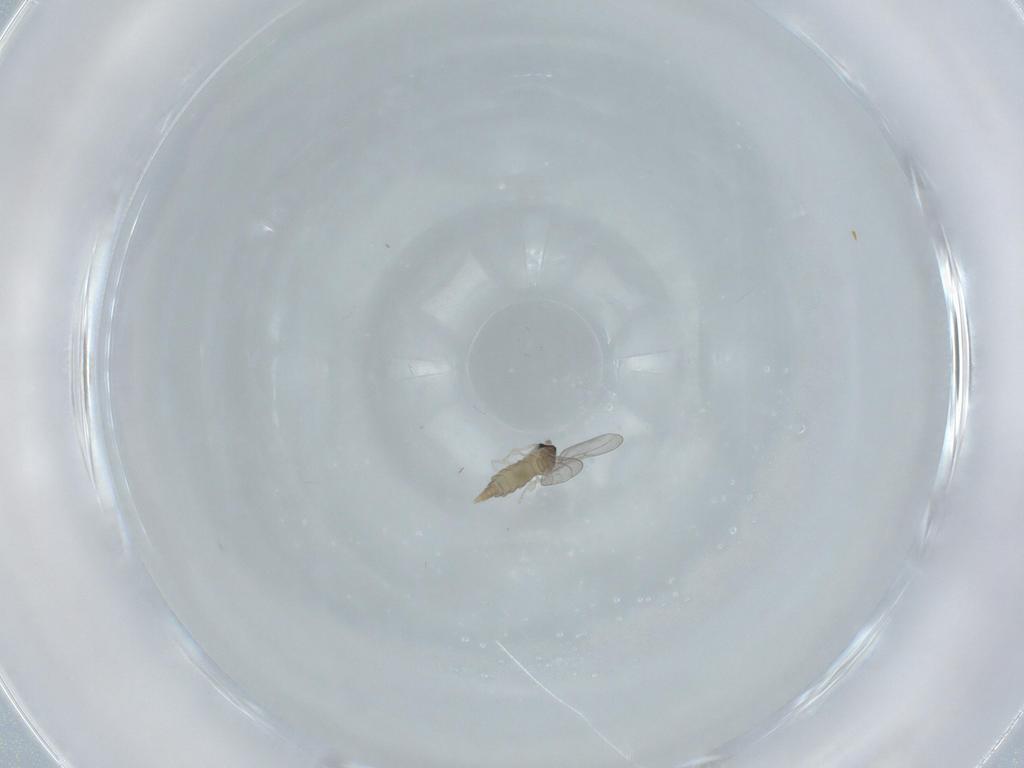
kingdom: Animalia
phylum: Arthropoda
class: Insecta
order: Diptera
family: Cecidomyiidae
